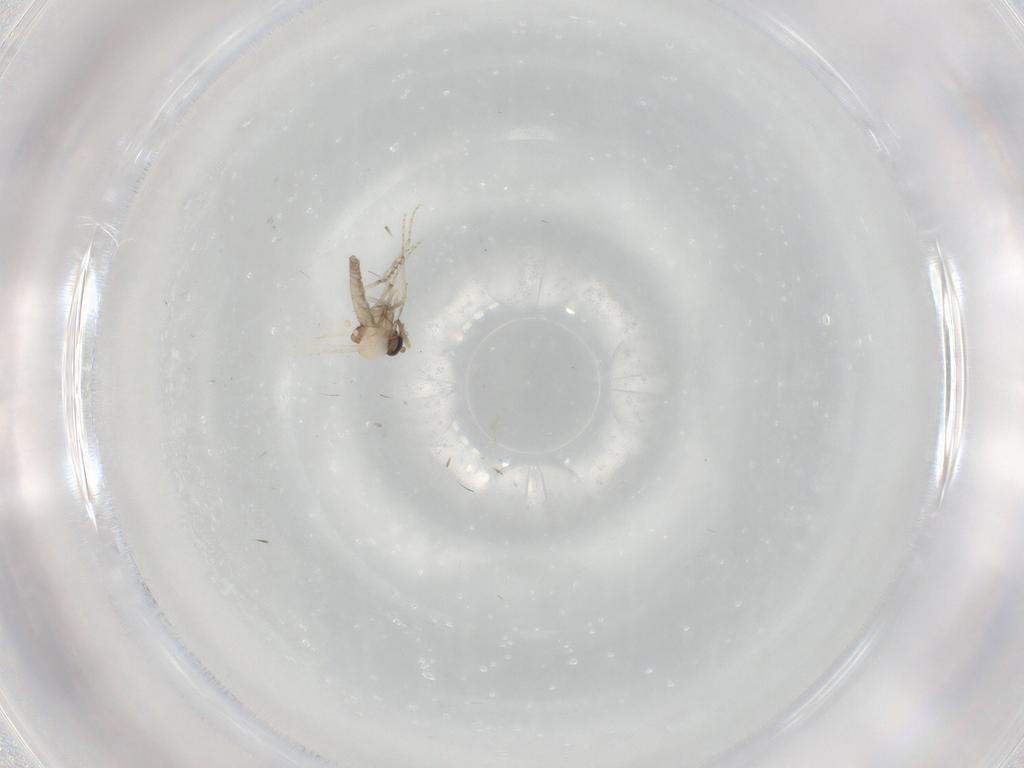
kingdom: Animalia
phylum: Arthropoda
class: Insecta
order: Diptera
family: Ceratopogonidae
